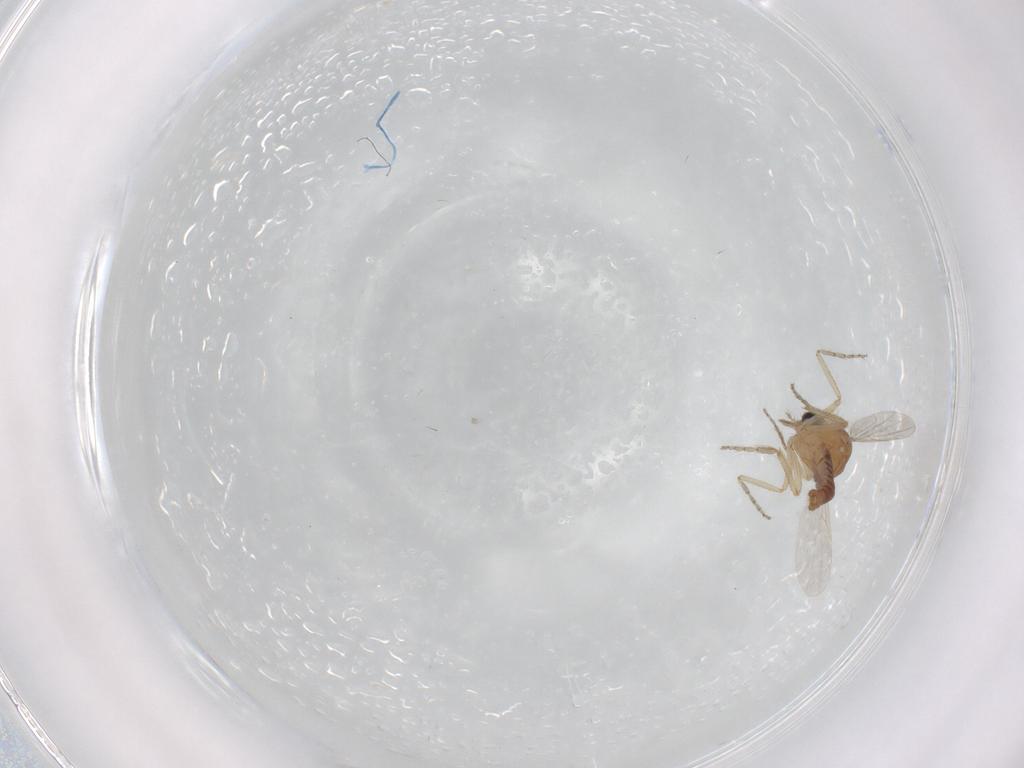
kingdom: Animalia
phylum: Arthropoda
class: Insecta
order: Diptera
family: Ceratopogonidae
